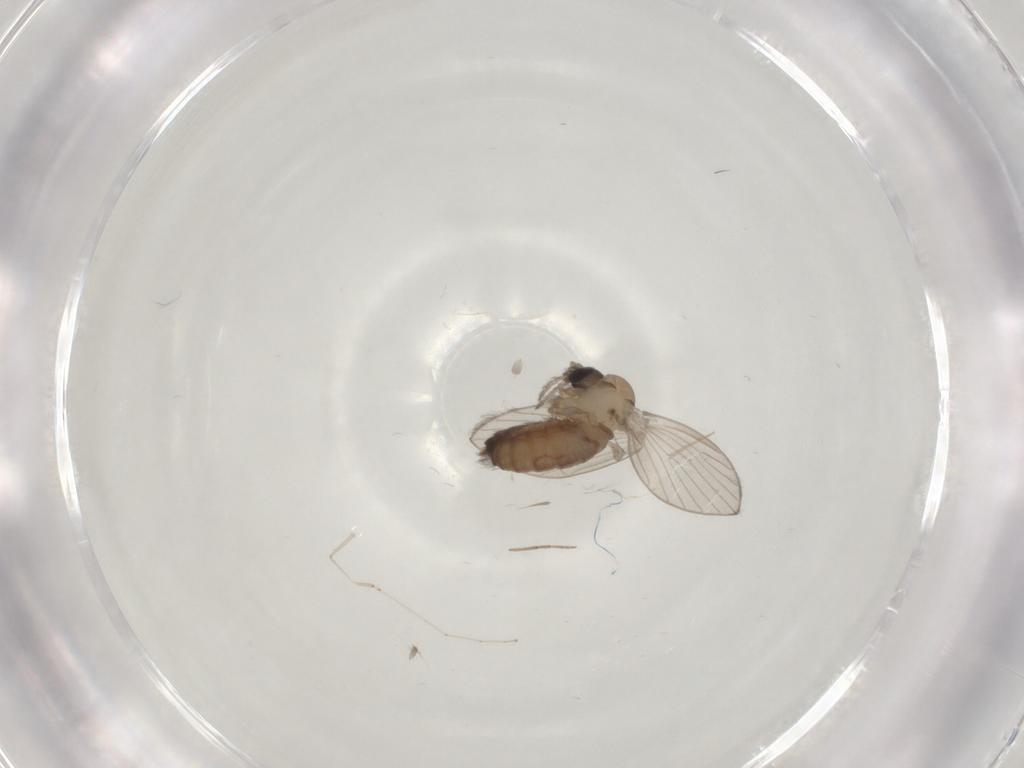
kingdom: Animalia
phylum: Arthropoda
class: Insecta
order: Diptera
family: Psychodidae
